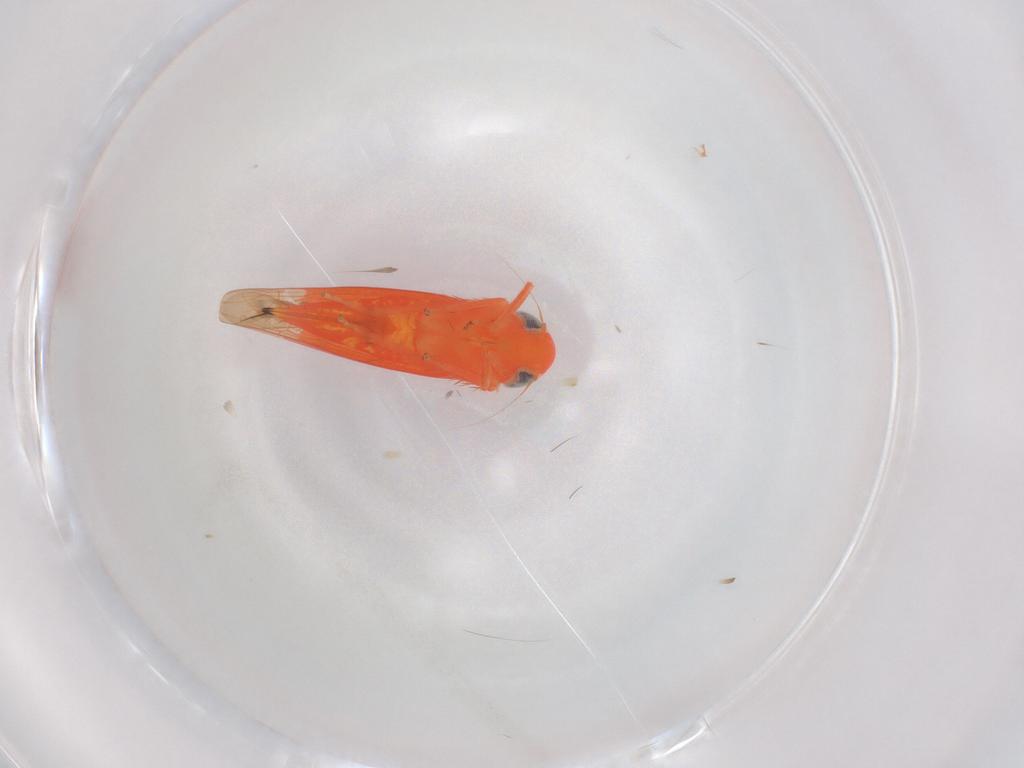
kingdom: Animalia
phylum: Arthropoda
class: Insecta
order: Hemiptera
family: Cicadellidae
